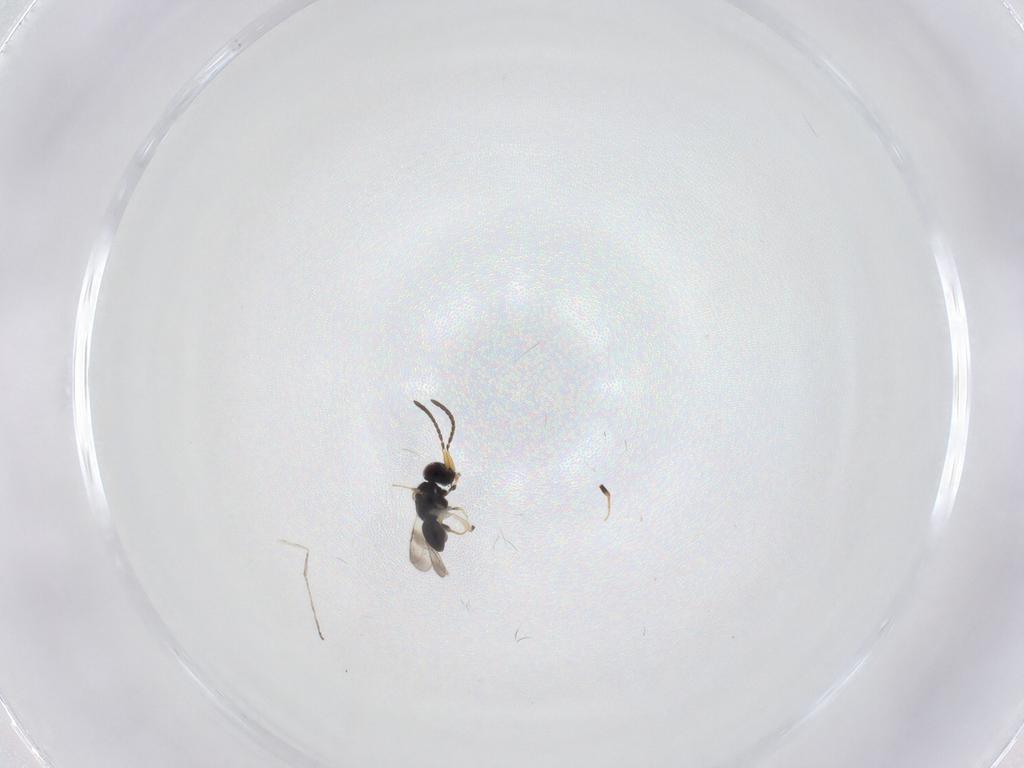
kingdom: Animalia
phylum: Arthropoda
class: Insecta
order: Diptera
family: Cecidomyiidae
